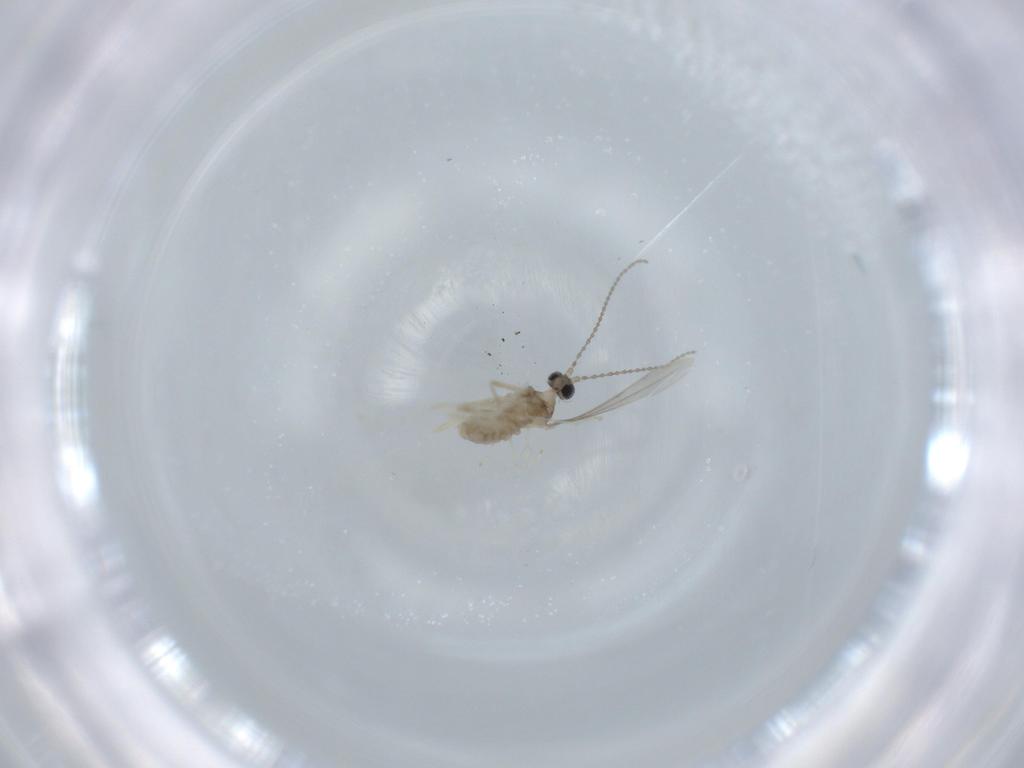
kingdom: Animalia
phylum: Arthropoda
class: Insecta
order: Diptera
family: Cecidomyiidae
